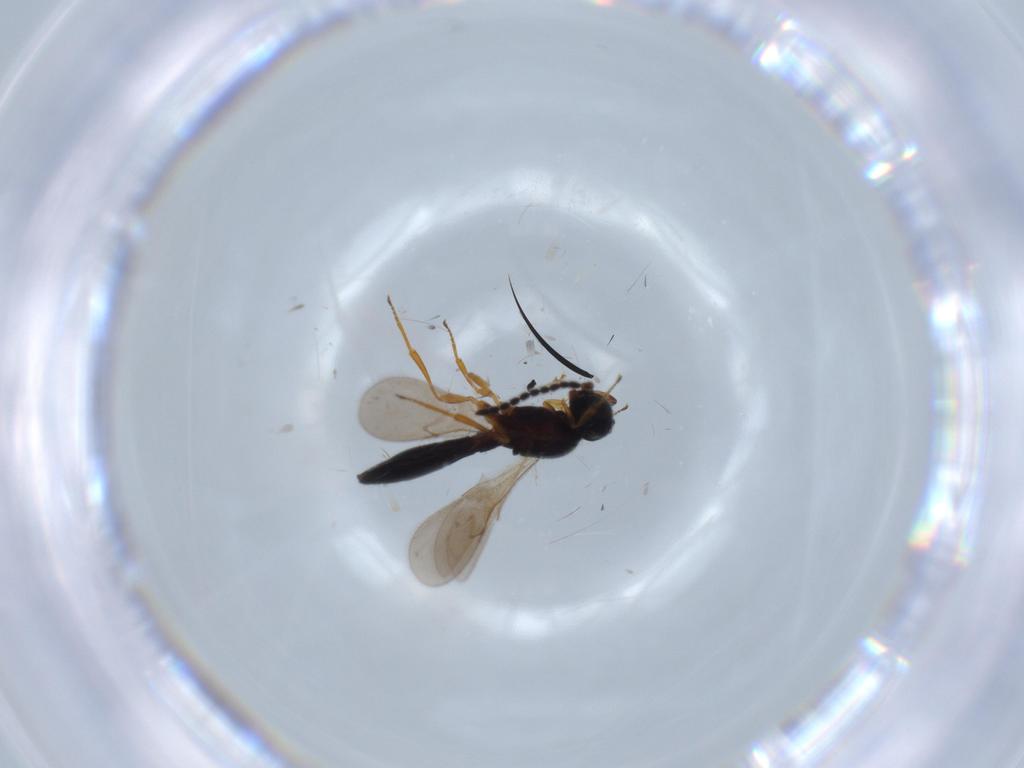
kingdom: Animalia
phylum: Arthropoda
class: Insecta
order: Hymenoptera
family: Scelionidae
